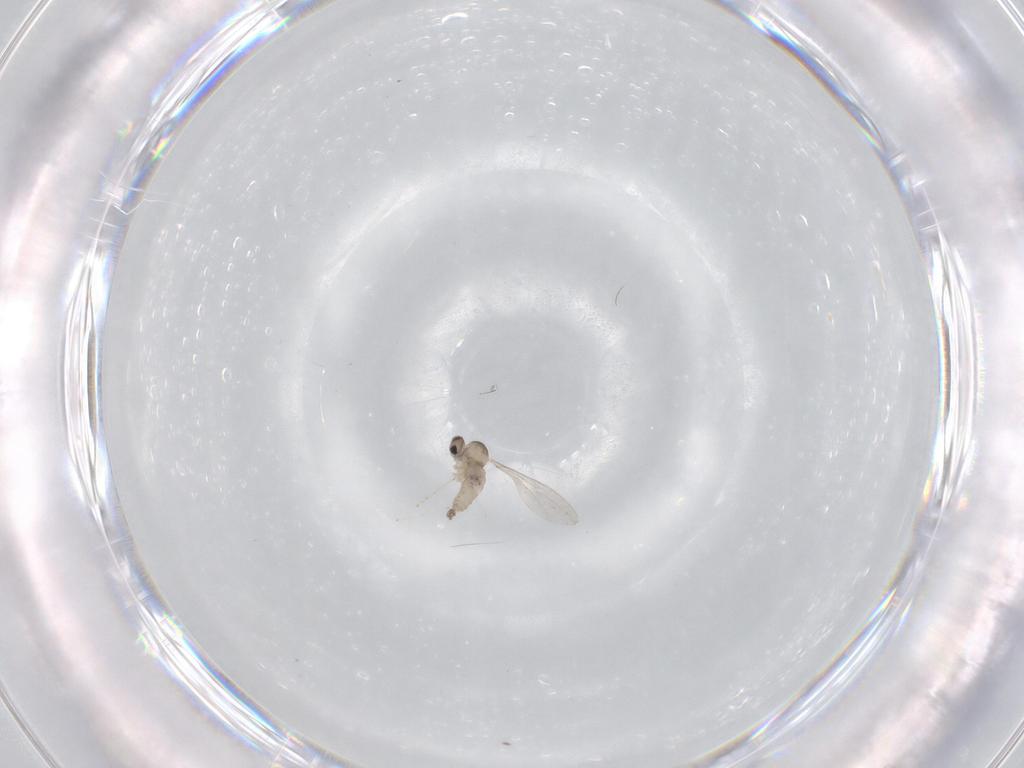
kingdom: Animalia
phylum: Arthropoda
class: Insecta
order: Diptera
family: Cecidomyiidae
